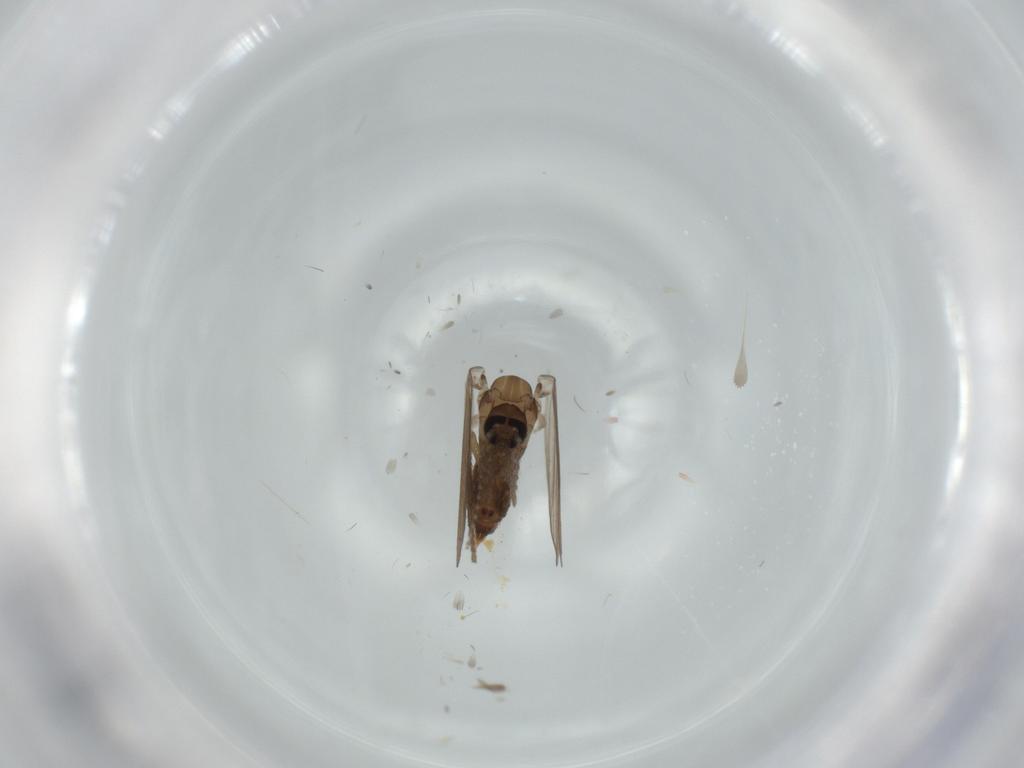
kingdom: Animalia
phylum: Arthropoda
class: Insecta
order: Diptera
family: Psychodidae
